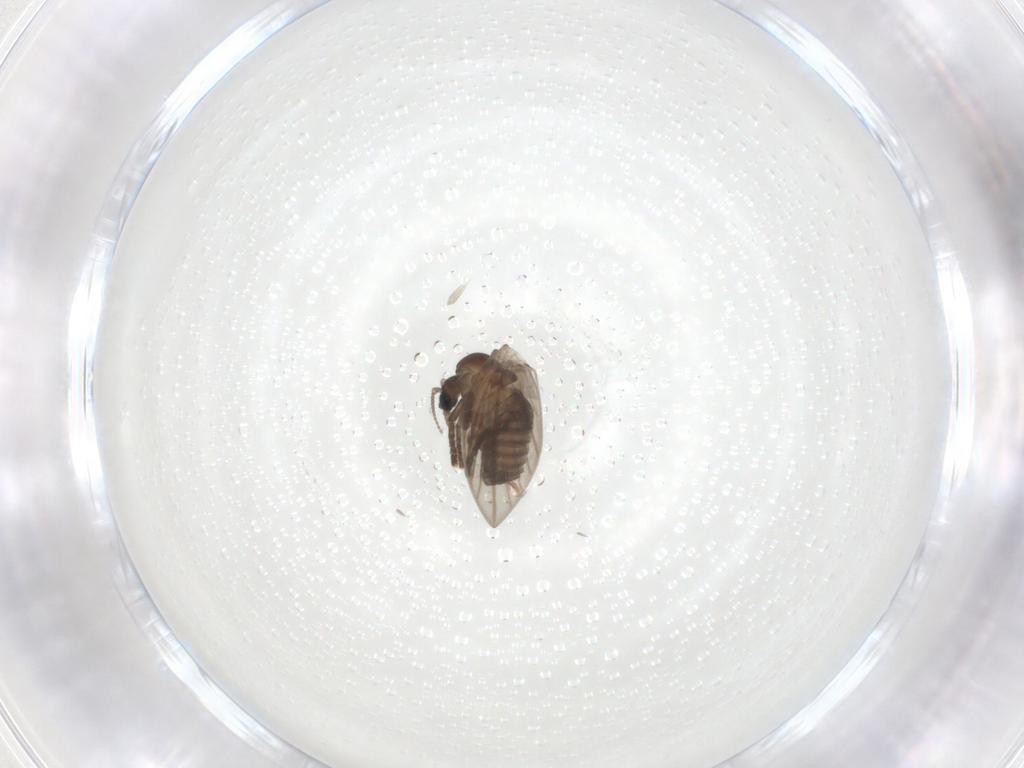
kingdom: Animalia
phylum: Arthropoda
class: Insecta
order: Diptera
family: Psychodidae
